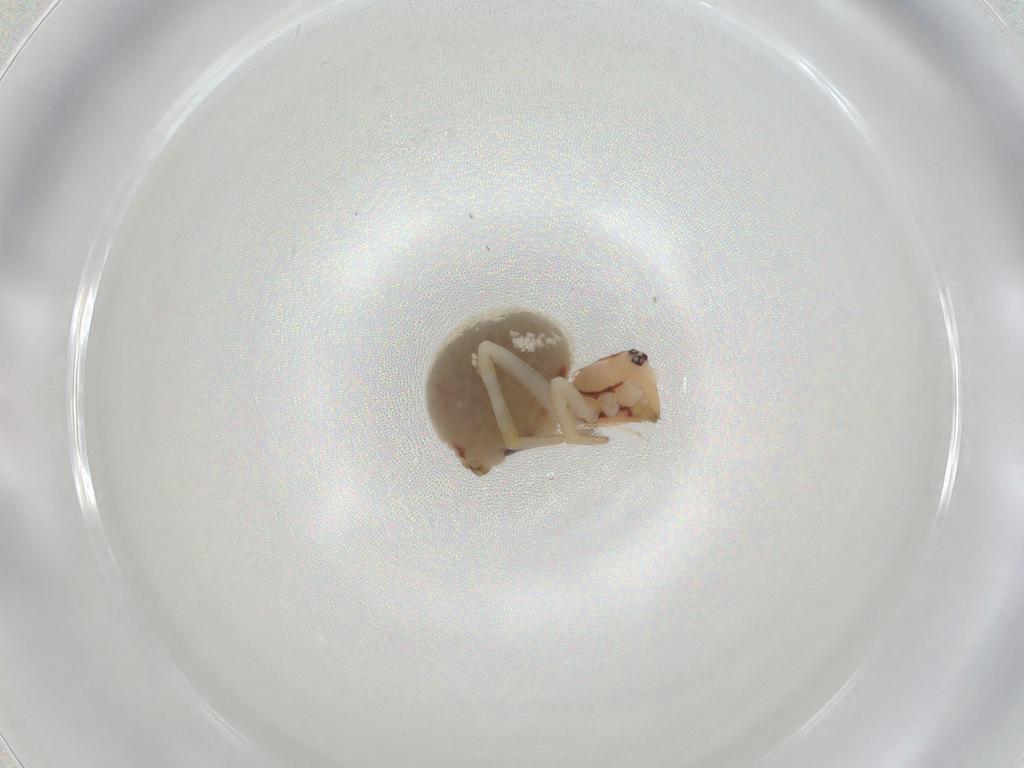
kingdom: Animalia
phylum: Arthropoda
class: Arachnida
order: Araneae
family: Theridiidae
